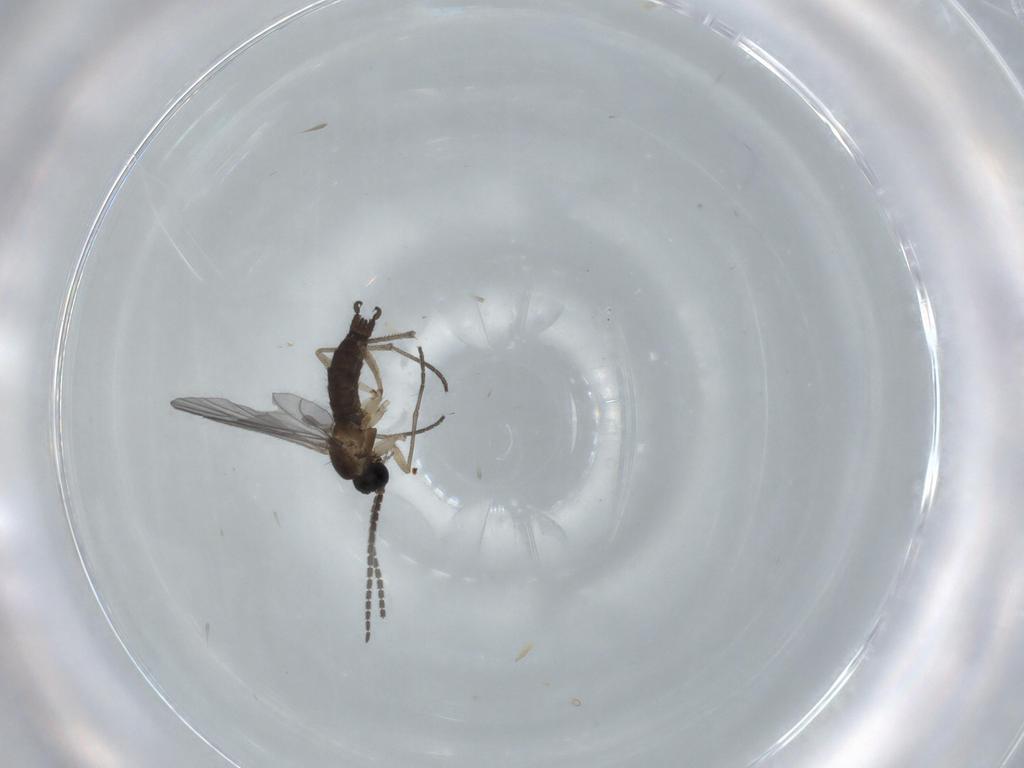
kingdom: Animalia
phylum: Arthropoda
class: Insecta
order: Diptera
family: Sciaridae
